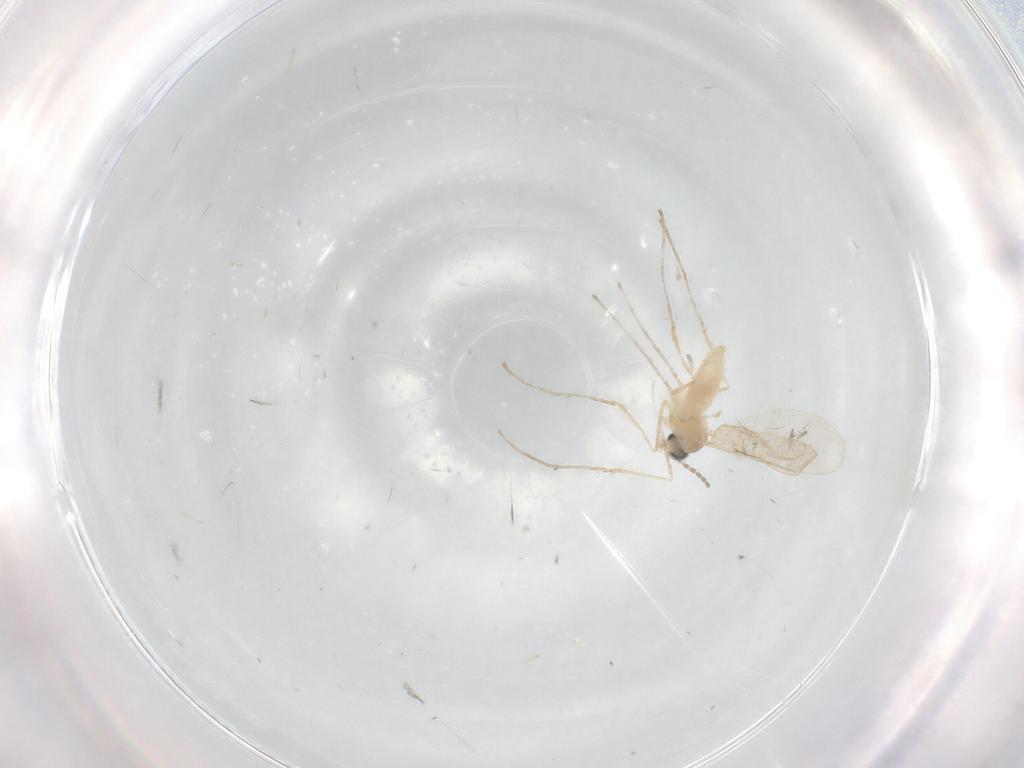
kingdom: Animalia
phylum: Arthropoda
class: Insecta
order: Diptera
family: Cecidomyiidae
